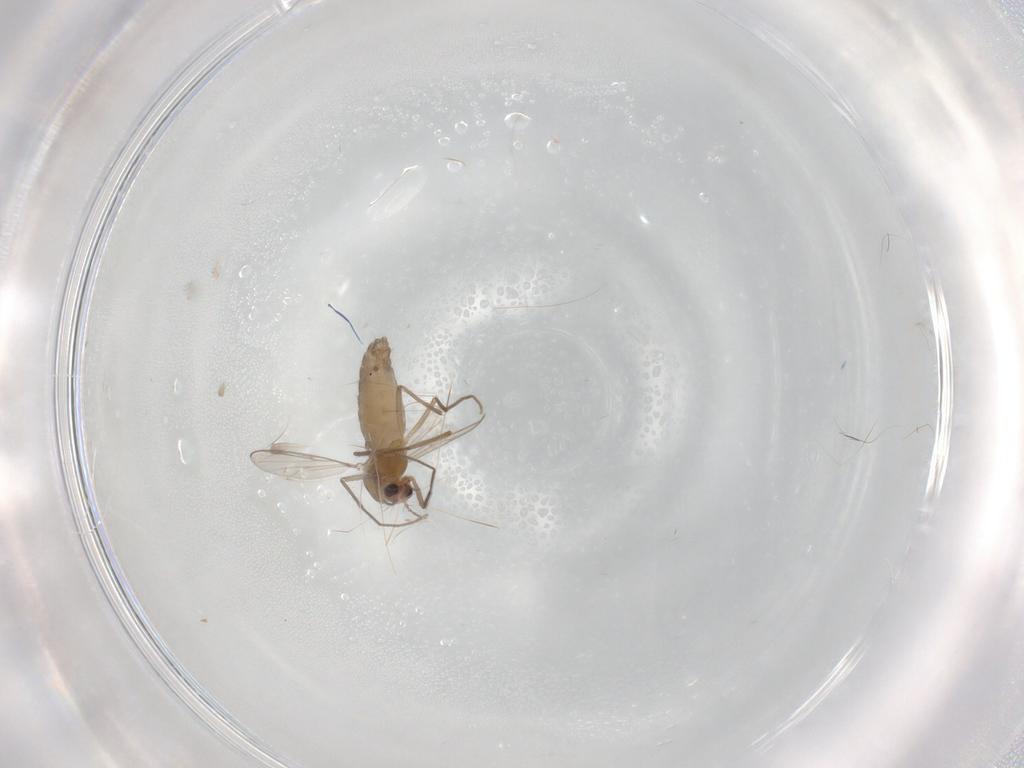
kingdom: Animalia
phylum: Arthropoda
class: Insecta
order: Diptera
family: Chironomidae
